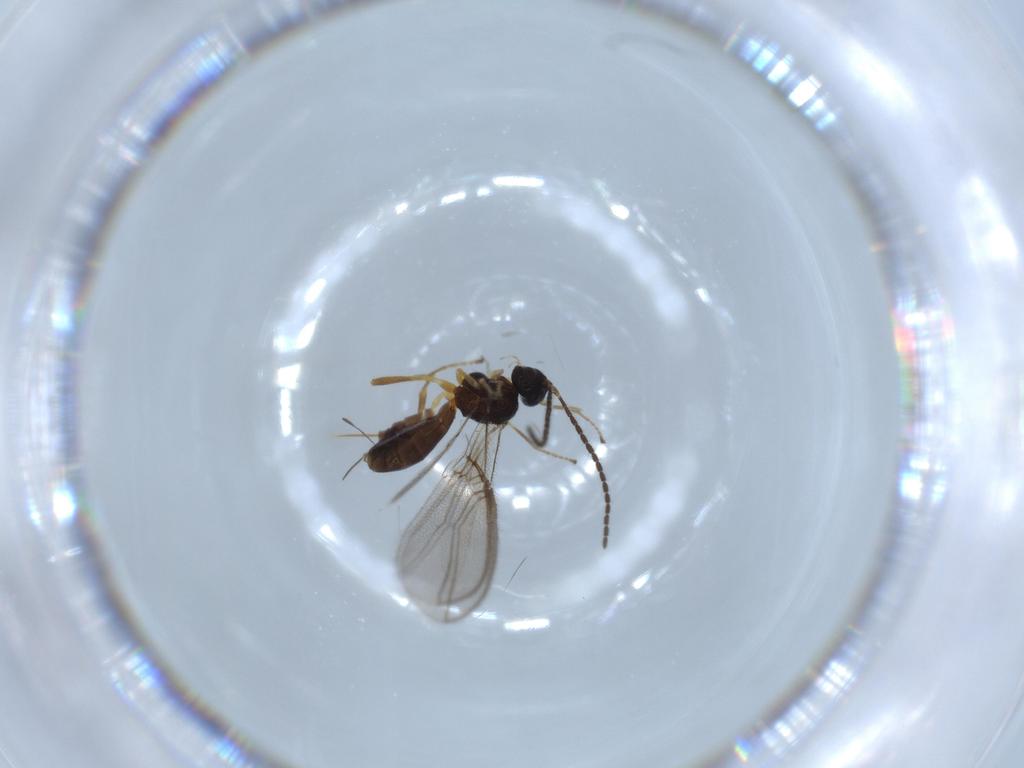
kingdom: Animalia
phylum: Arthropoda
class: Insecta
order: Hymenoptera
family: Braconidae
